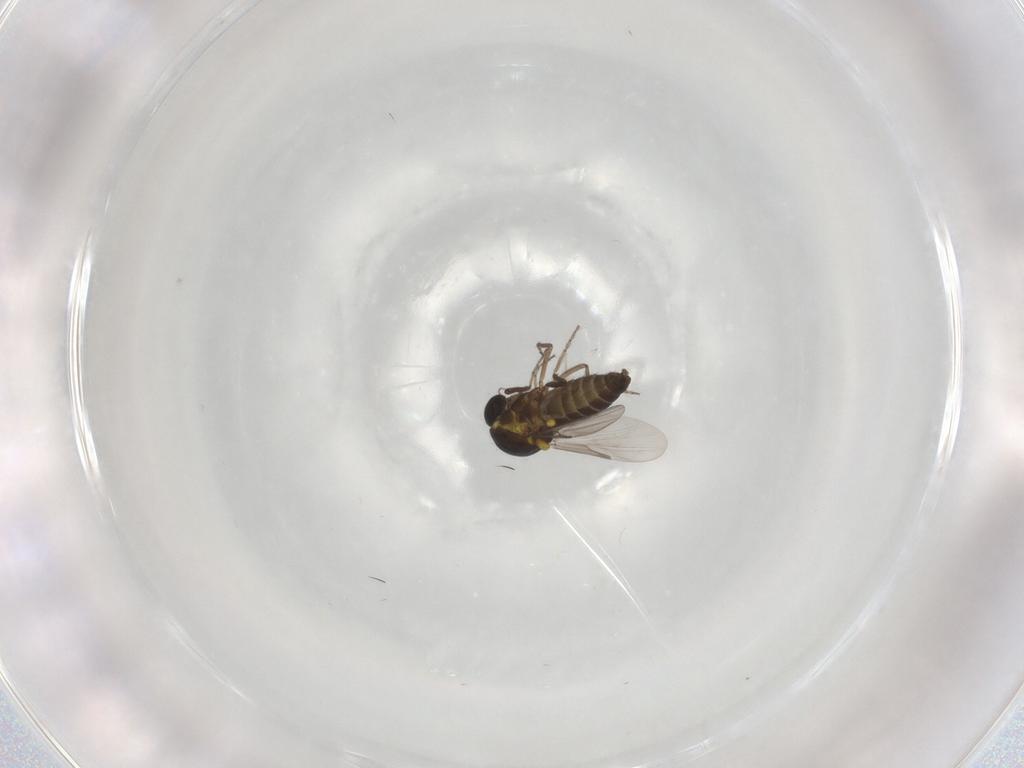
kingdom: Animalia
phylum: Arthropoda
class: Insecta
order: Diptera
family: Ceratopogonidae
